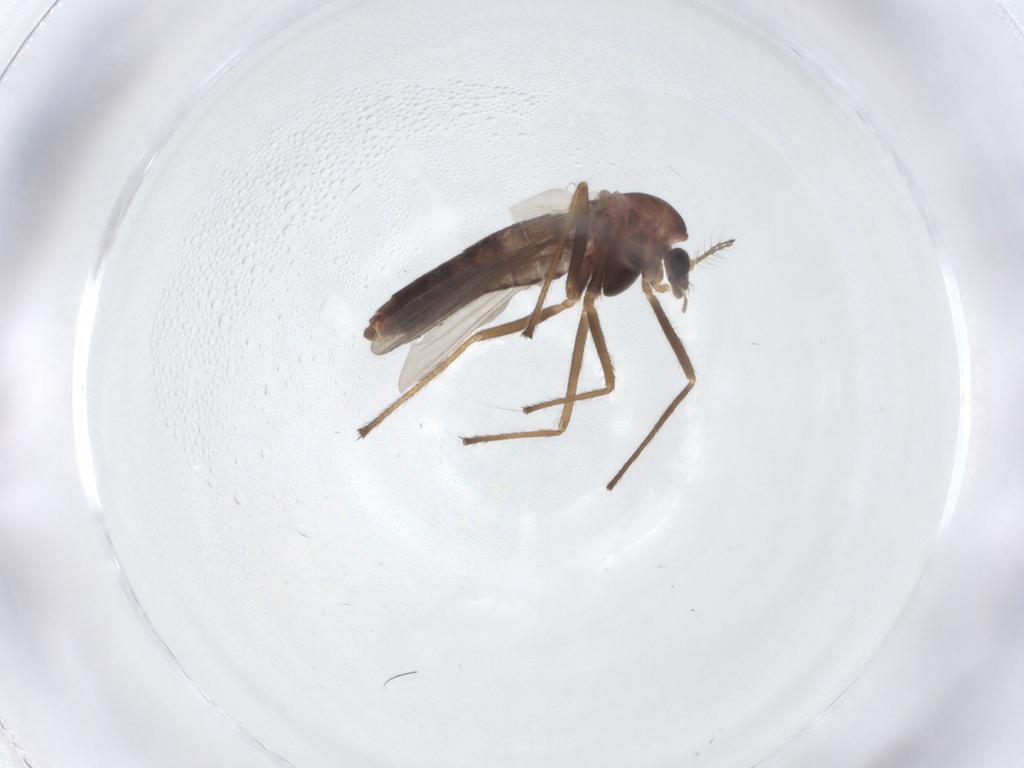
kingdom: Animalia
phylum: Arthropoda
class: Insecta
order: Diptera
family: Chironomidae
